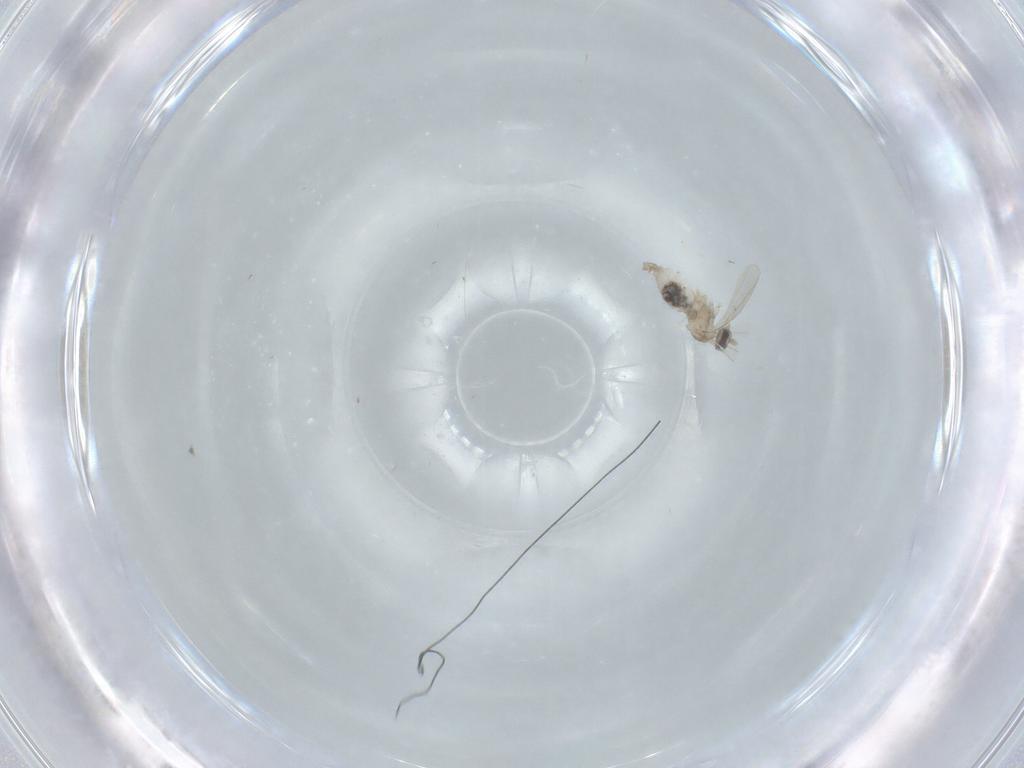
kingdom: Animalia
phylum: Arthropoda
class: Insecta
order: Diptera
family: Cecidomyiidae
